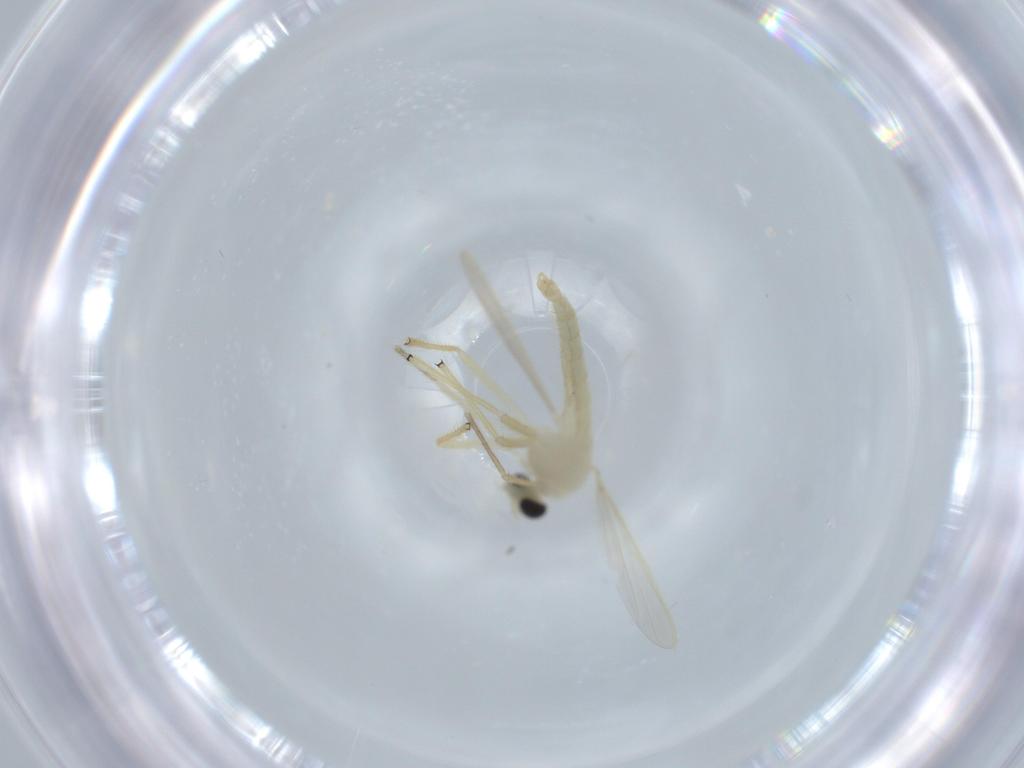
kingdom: Animalia
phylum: Arthropoda
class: Insecta
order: Diptera
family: Chironomidae
